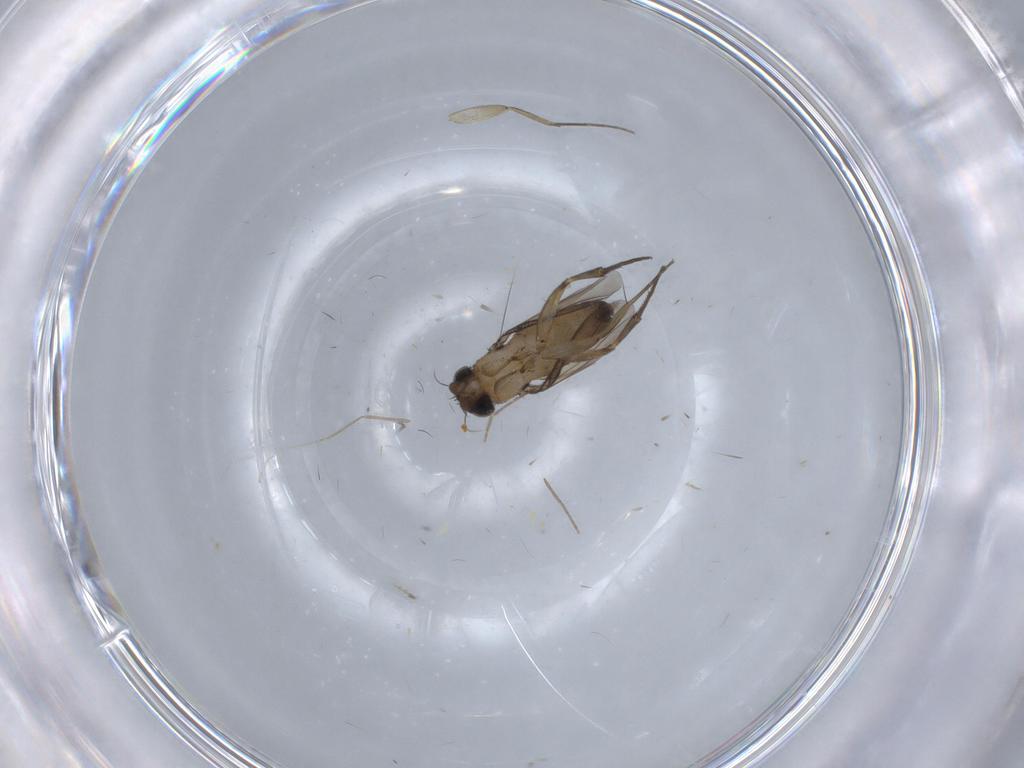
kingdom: Animalia
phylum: Arthropoda
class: Insecta
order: Diptera
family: Phoridae
